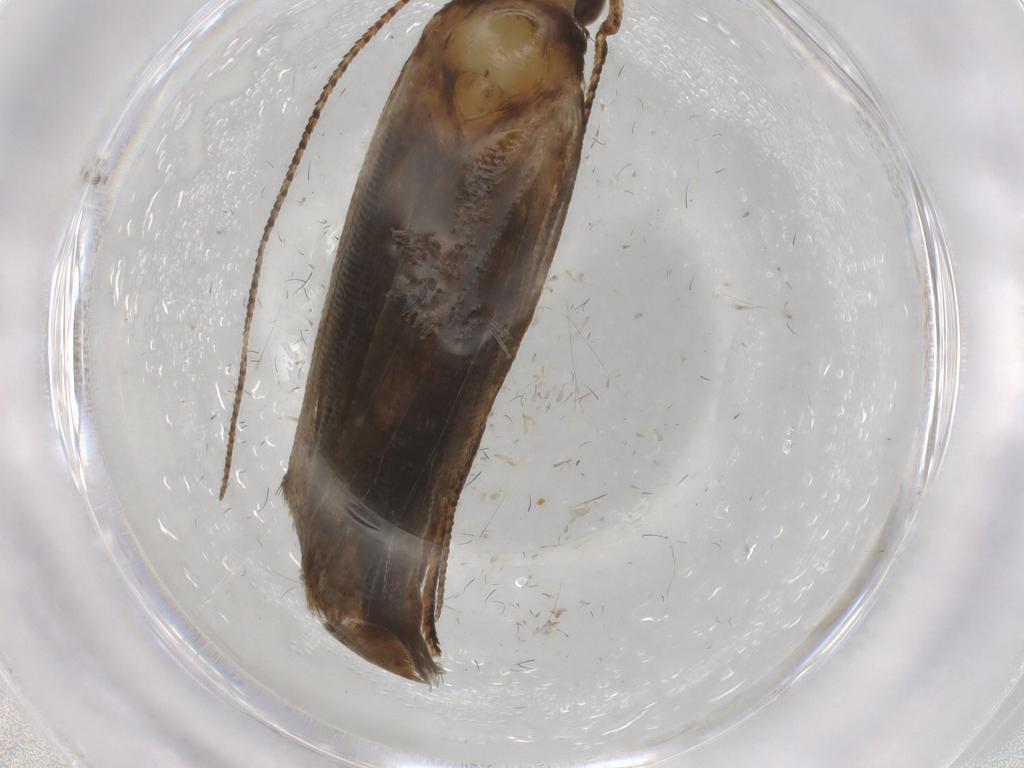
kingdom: Animalia
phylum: Arthropoda
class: Insecta
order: Lepidoptera
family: Gelechiidae
